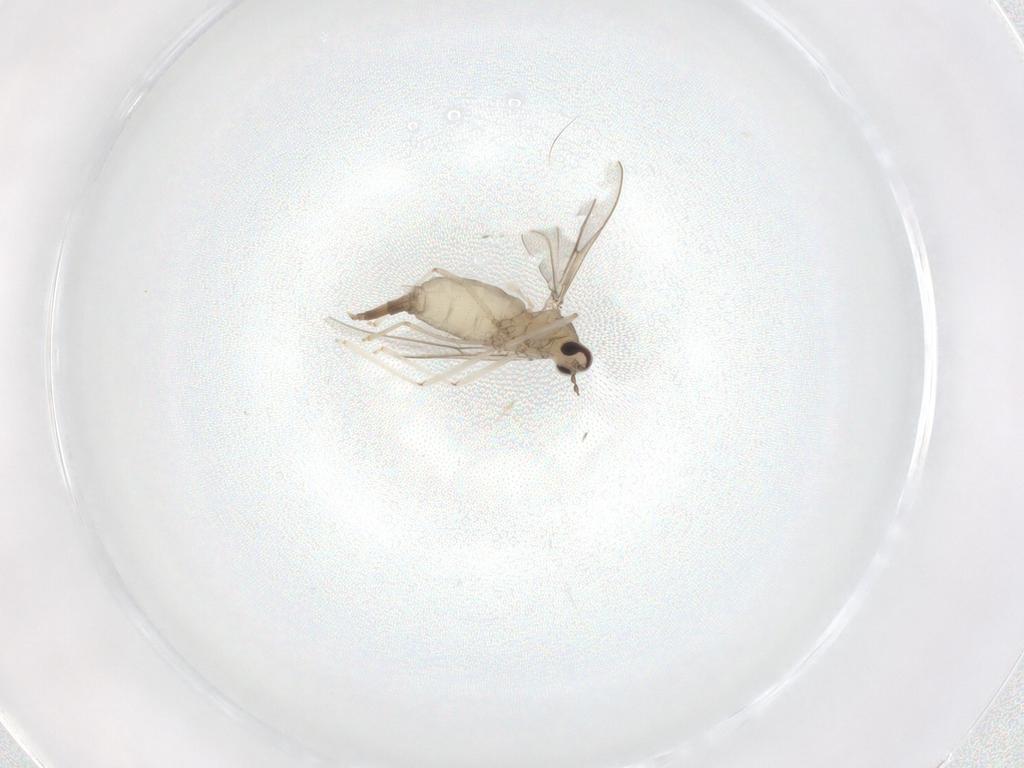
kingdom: Animalia
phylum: Arthropoda
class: Insecta
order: Diptera
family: Cecidomyiidae
